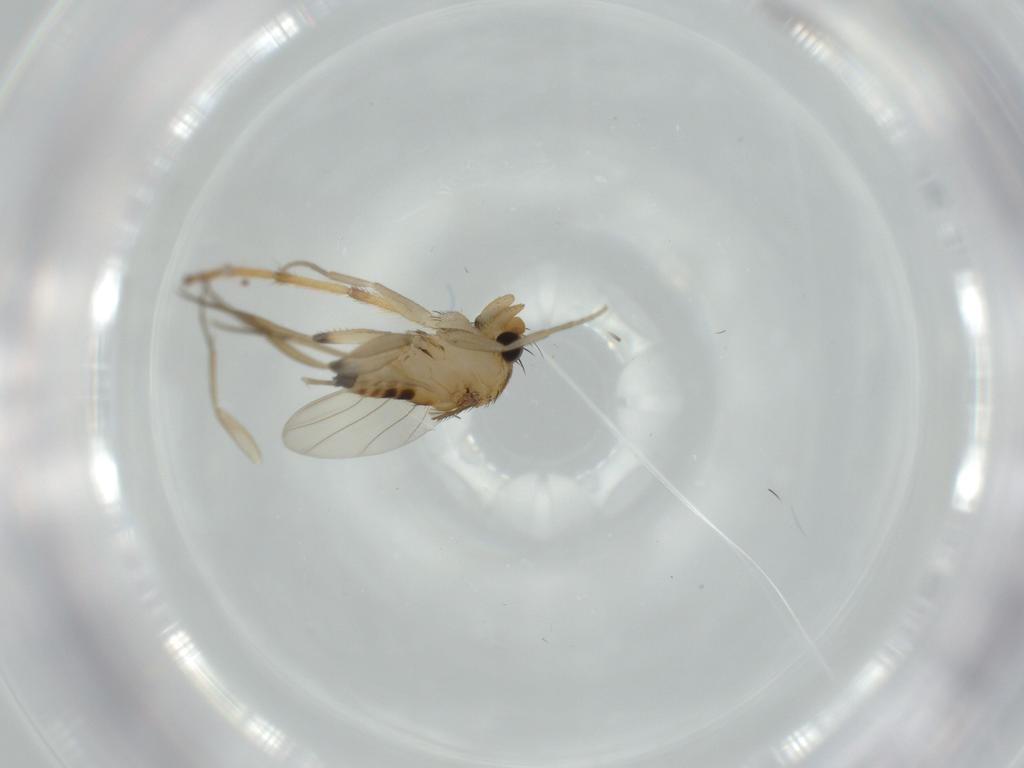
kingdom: Animalia
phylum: Arthropoda
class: Insecta
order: Diptera
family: Phoridae
